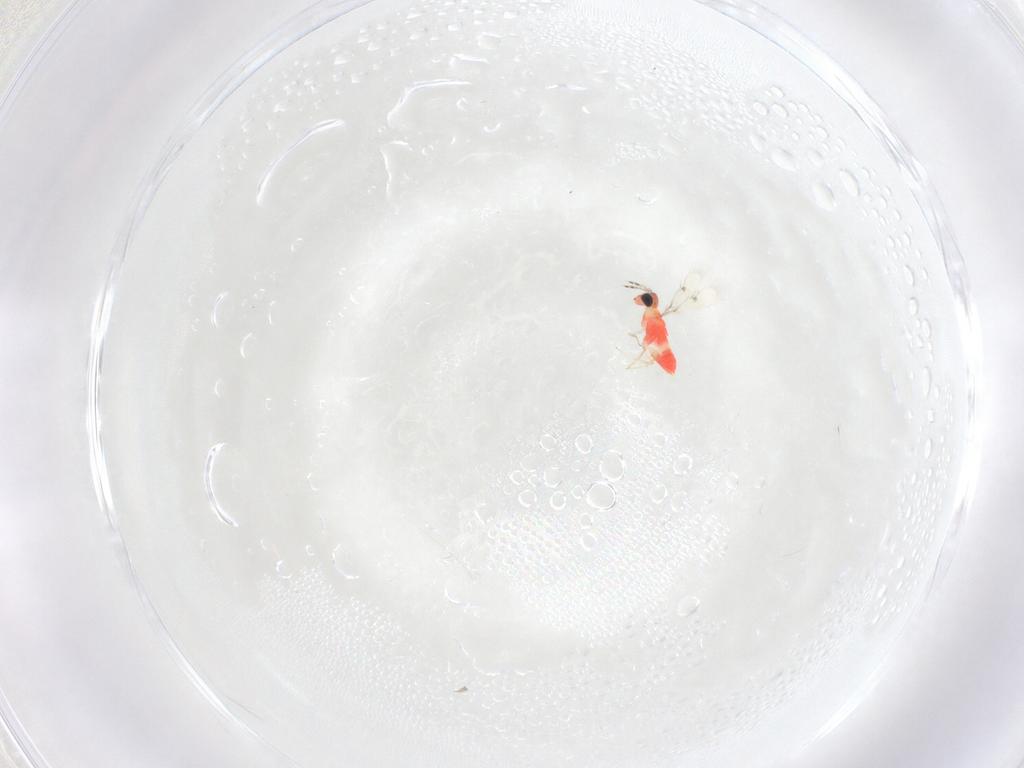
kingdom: Animalia
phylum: Arthropoda
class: Insecta
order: Hymenoptera
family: Trichogrammatidae
